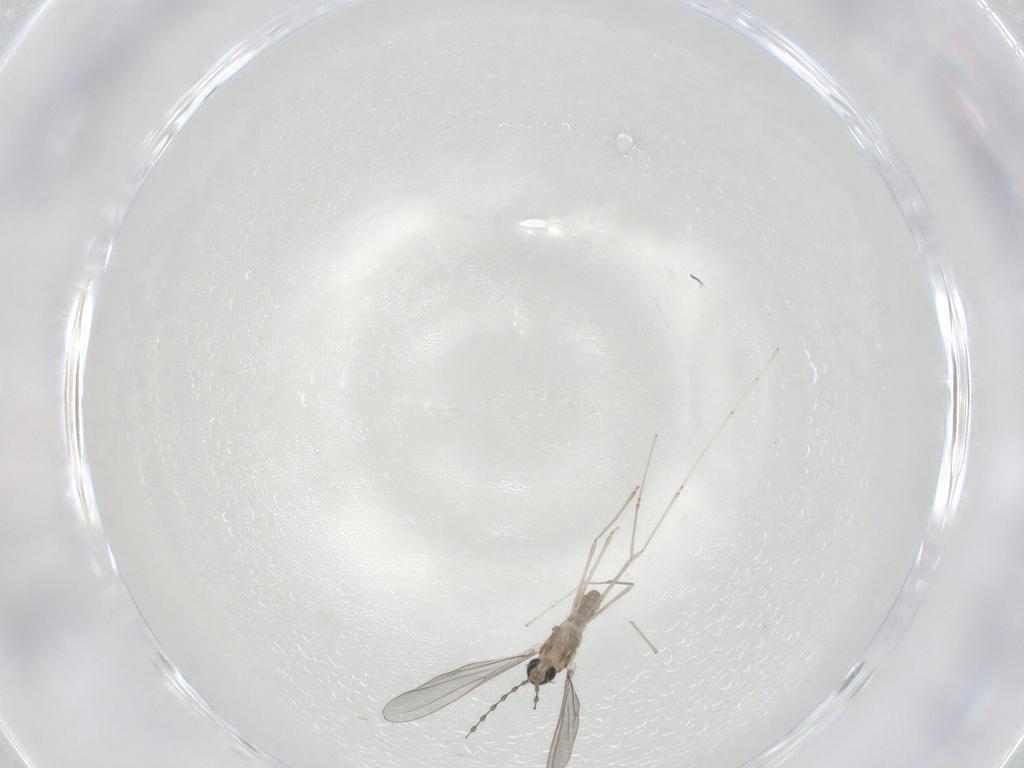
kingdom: Animalia
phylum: Arthropoda
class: Insecta
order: Diptera
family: Cecidomyiidae
